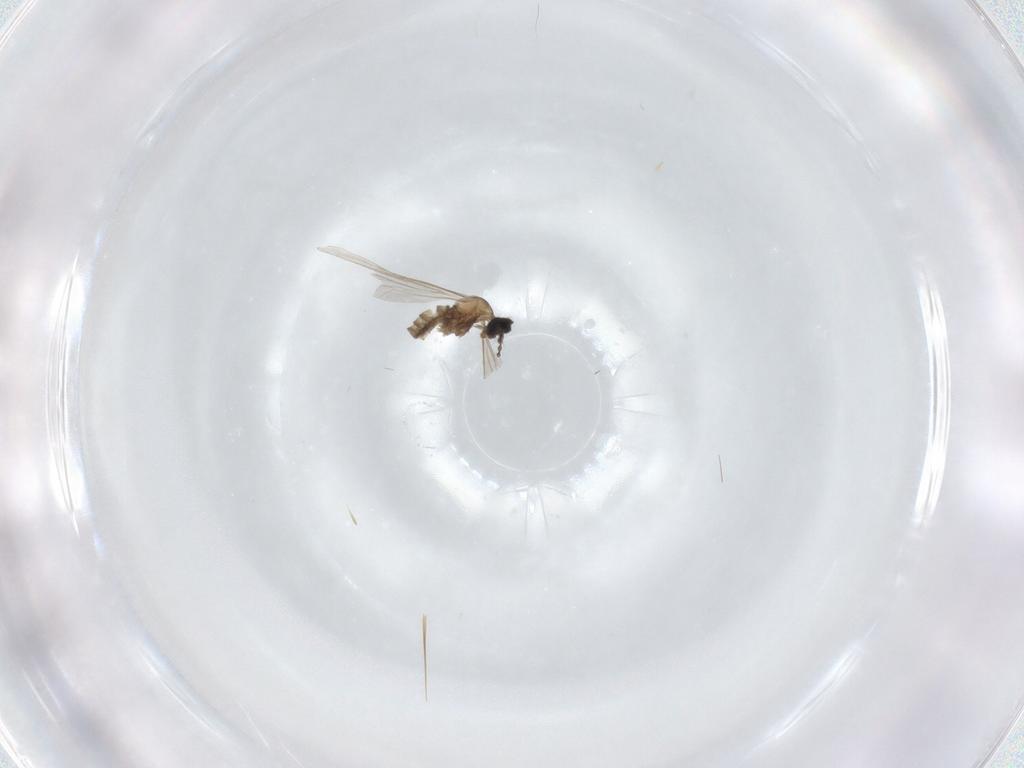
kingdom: Animalia
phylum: Arthropoda
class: Insecta
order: Diptera
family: Cecidomyiidae
